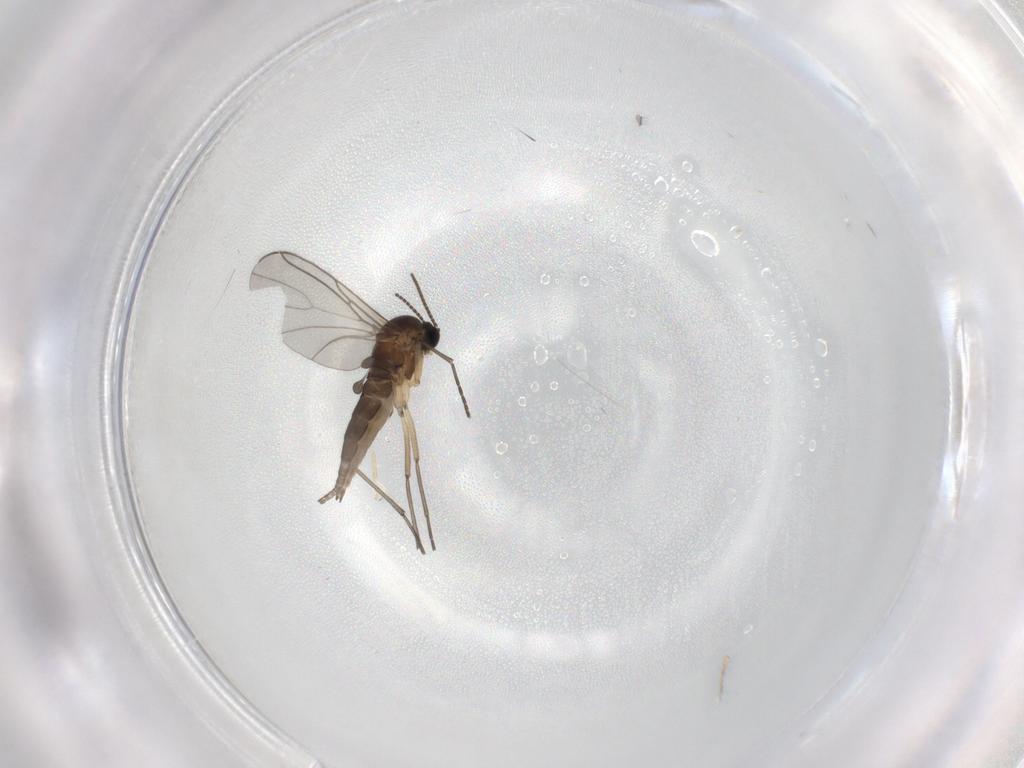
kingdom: Animalia
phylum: Arthropoda
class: Insecta
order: Diptera
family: Sciaridae
